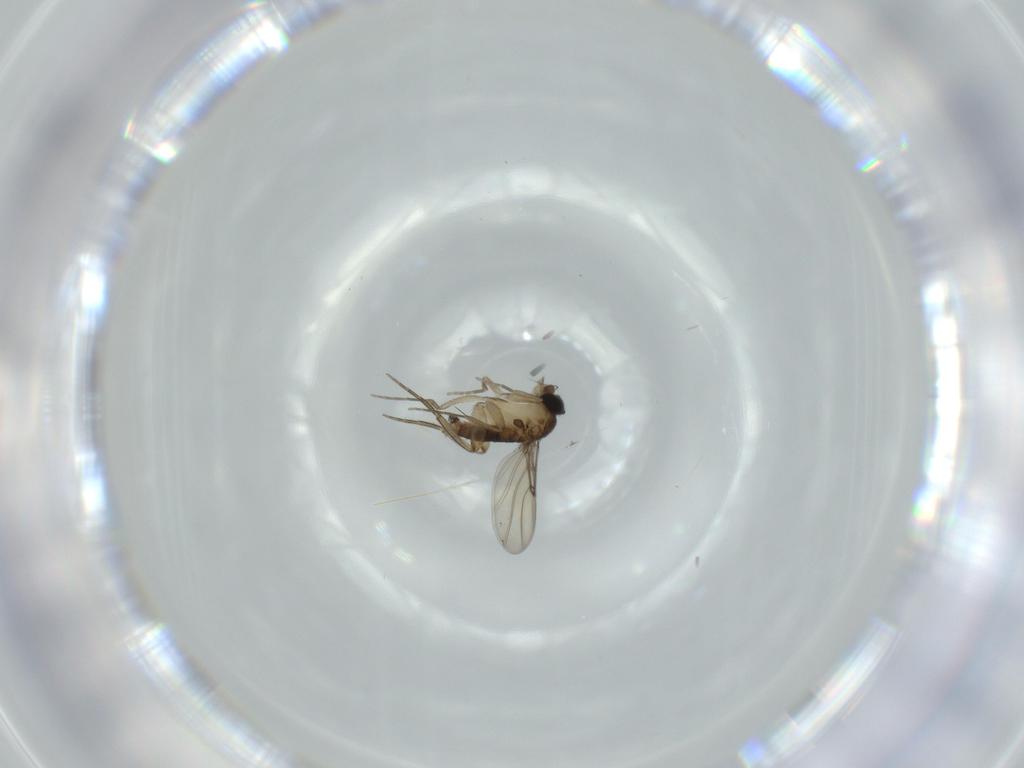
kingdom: Animalia
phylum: Arthropoda
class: Insecta
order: Diptera
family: Phoridae
